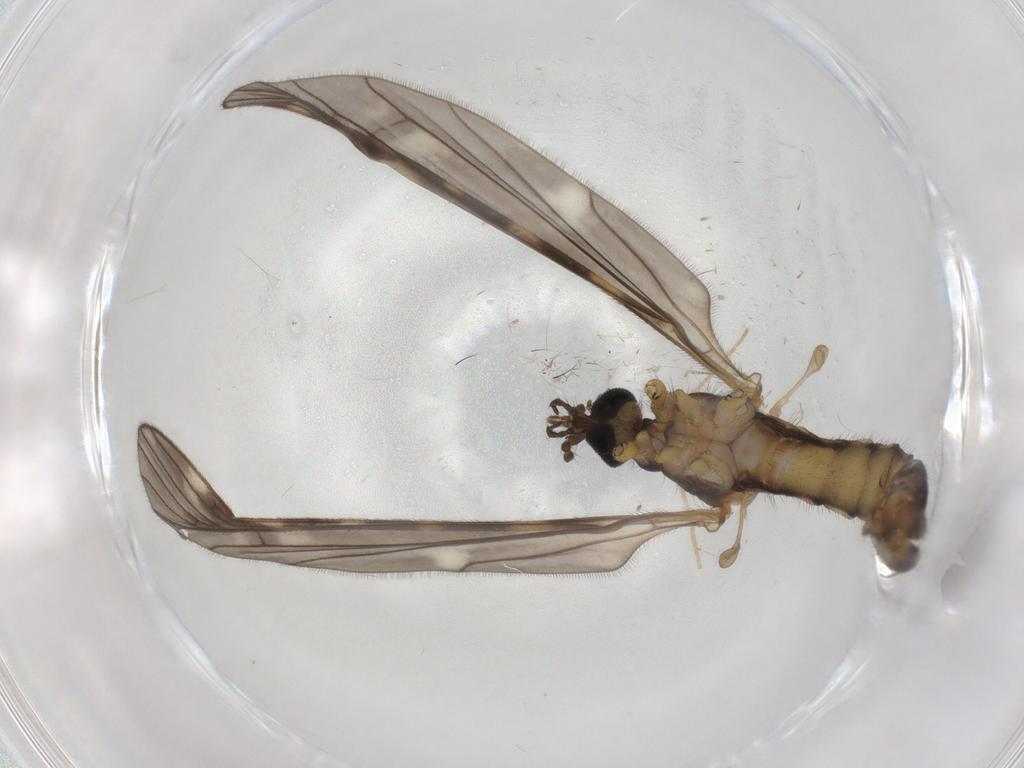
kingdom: Animalia
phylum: Arthropoda
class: Insecta
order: Diptera
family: Phoridae
